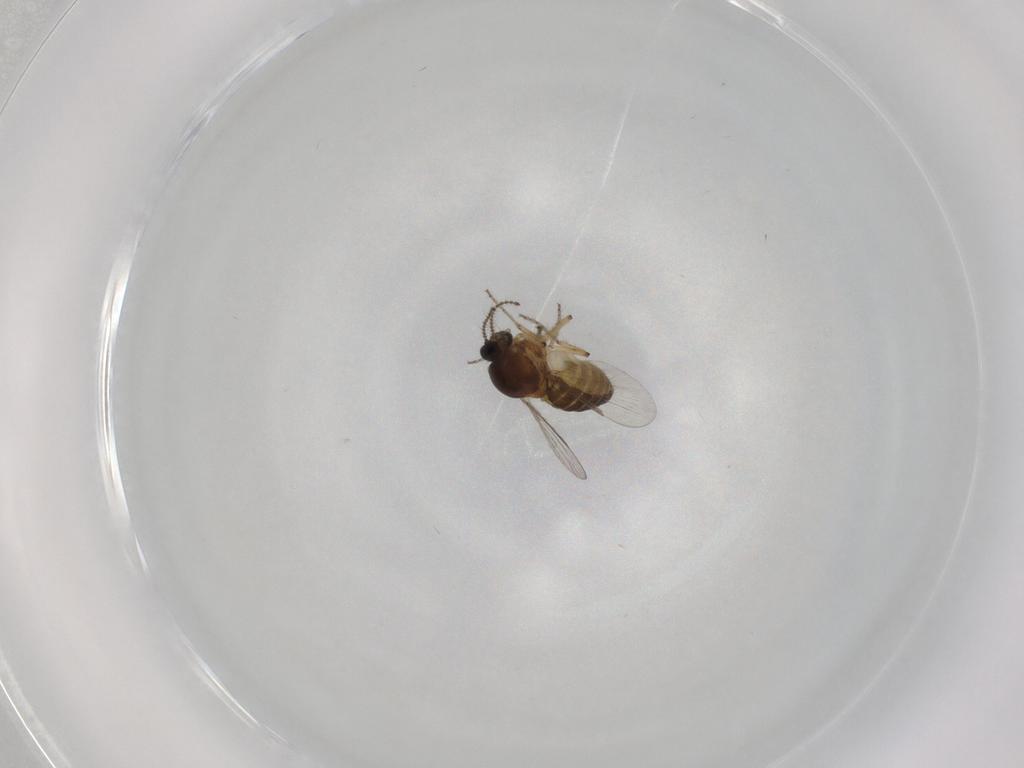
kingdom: Animalia
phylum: Arthropoda
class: Insecta
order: Diptera
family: Ceratopogonidae
